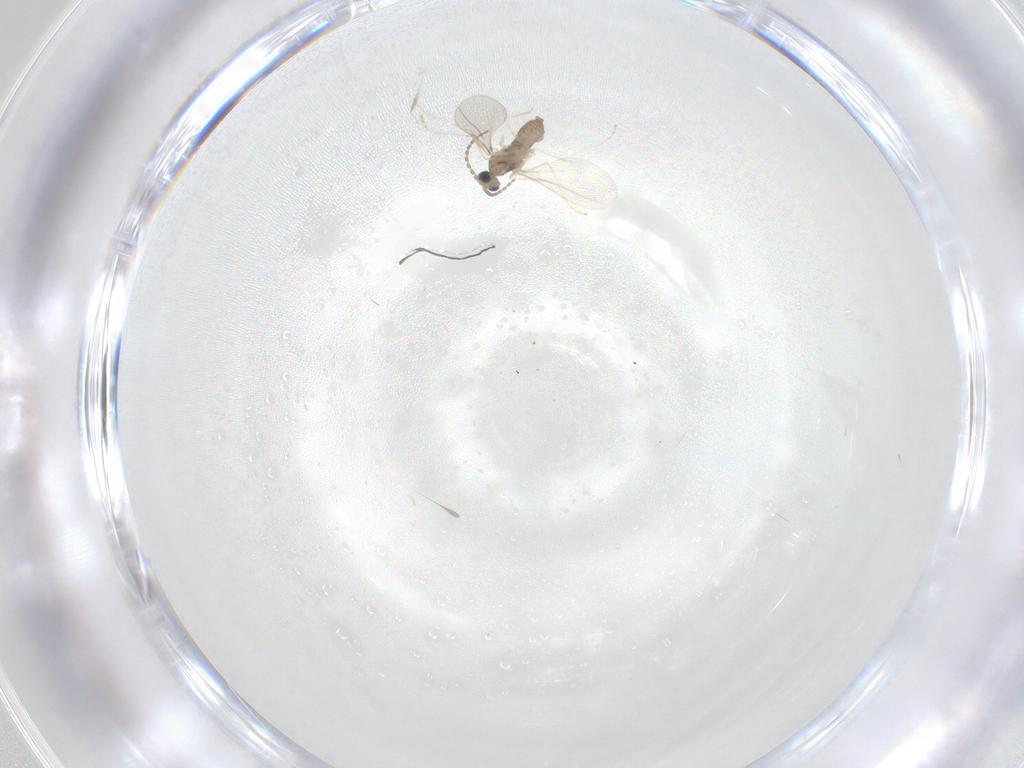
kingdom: Animalia
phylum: Arthropoda
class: Insecta
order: Diptera
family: Cecidomyiidae
